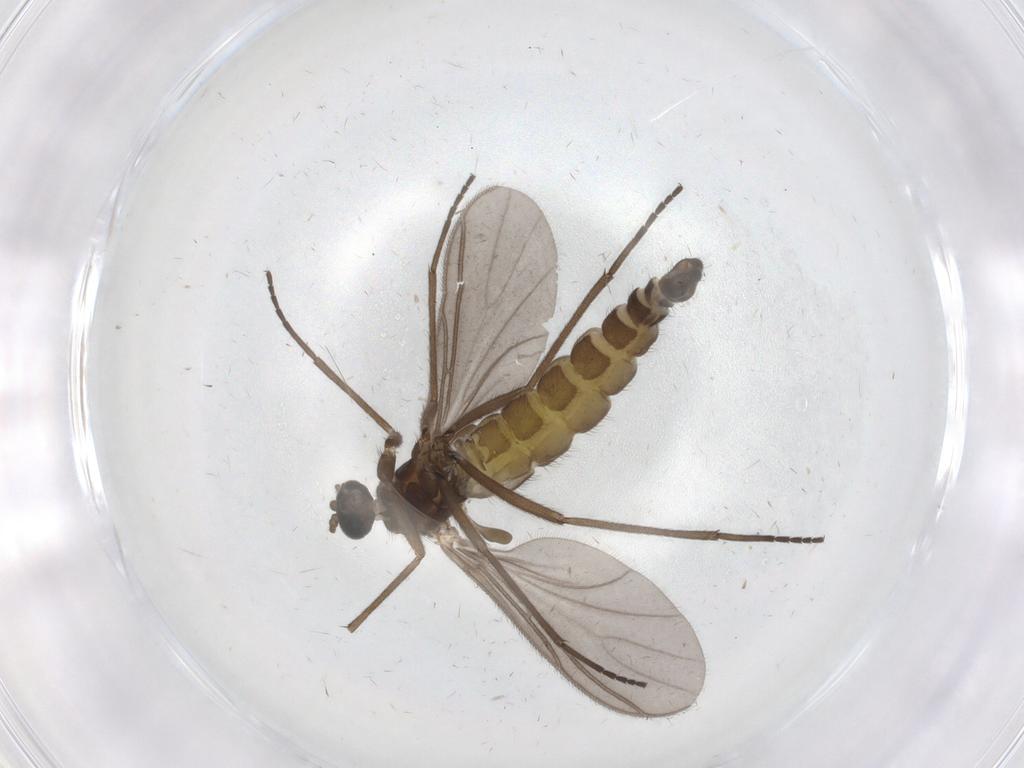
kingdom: Animalia
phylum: Arthropoda
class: Insecta
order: Diptera
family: Sciaridae
